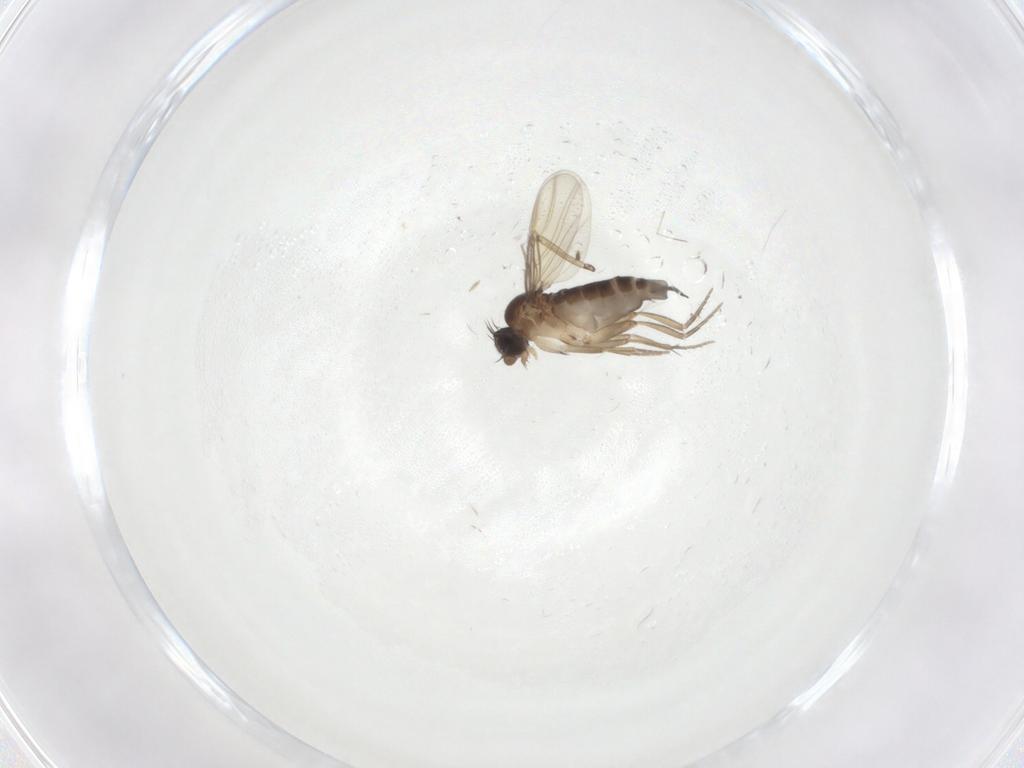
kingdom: Animalia
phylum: Arthropoda
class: Insecta
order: Diptera
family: Phoridae
